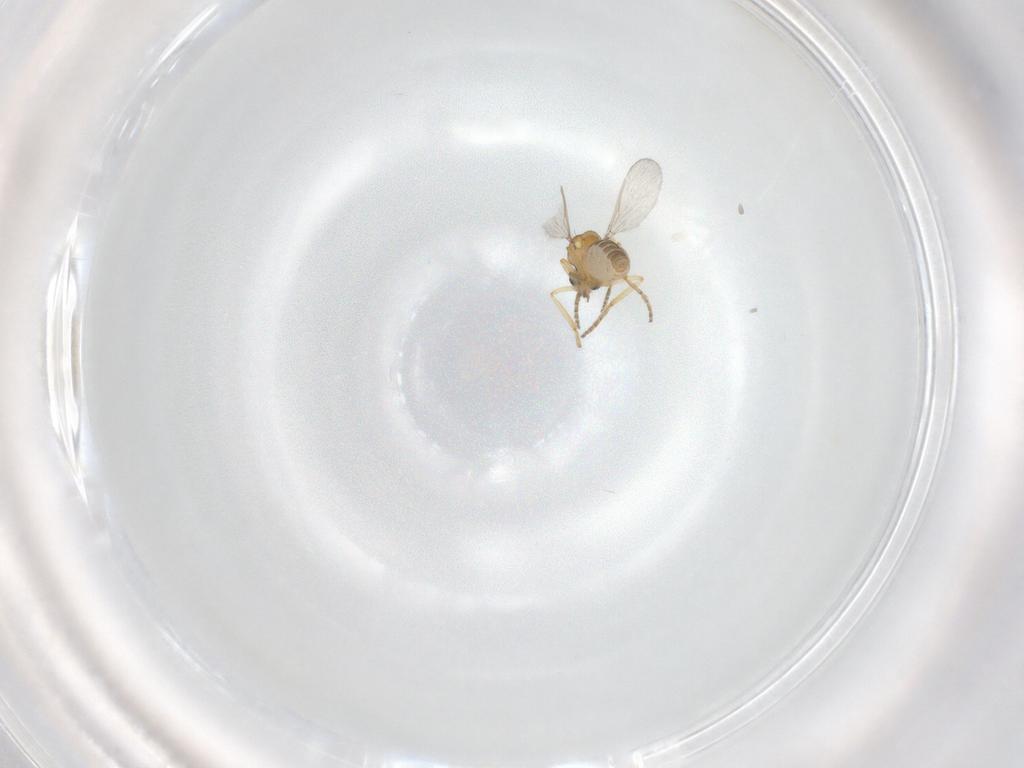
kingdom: Animalia
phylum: Arthropoda
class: Insecta
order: Diptera
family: Ceratopogonidae
